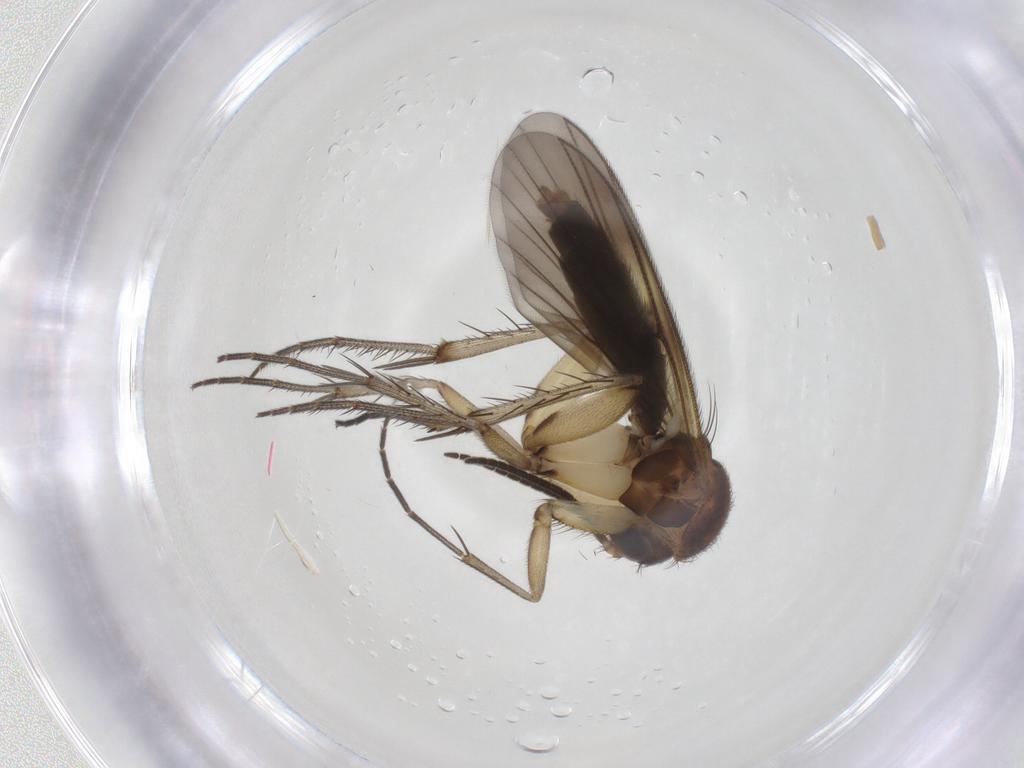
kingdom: Animalia
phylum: Arthropoda
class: Insecta
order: Diptera
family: Mycetophilidae
